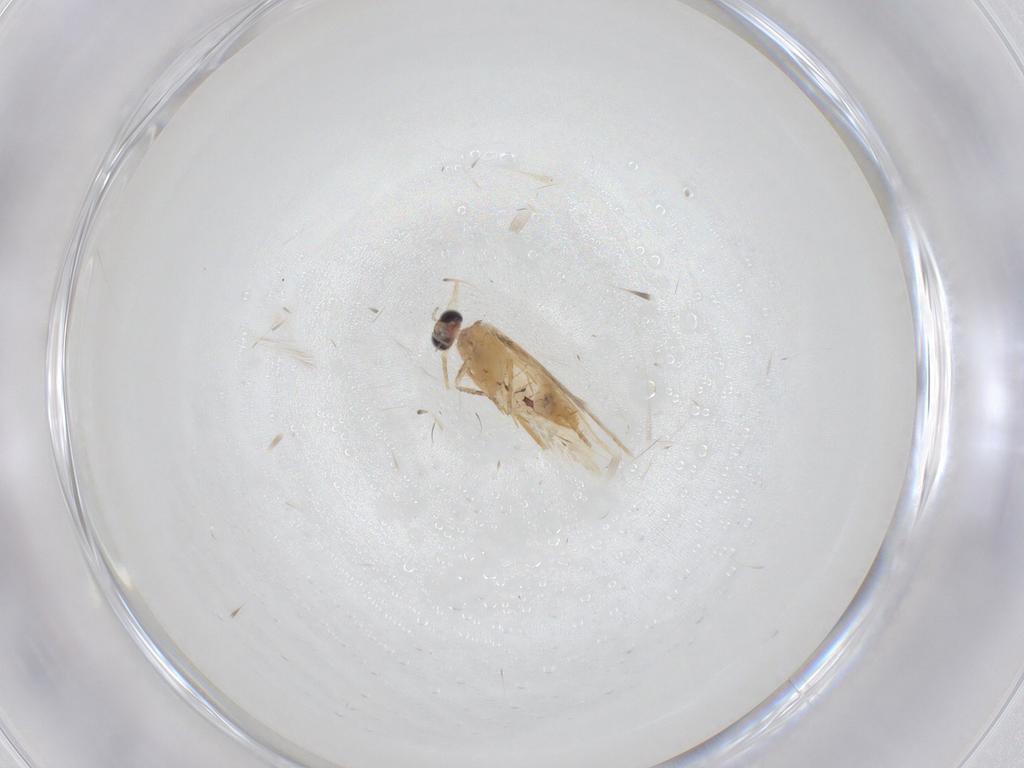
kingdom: Animalia
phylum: Arthropoda
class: Insecta
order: Lepidoptera
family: Nepticulidae
